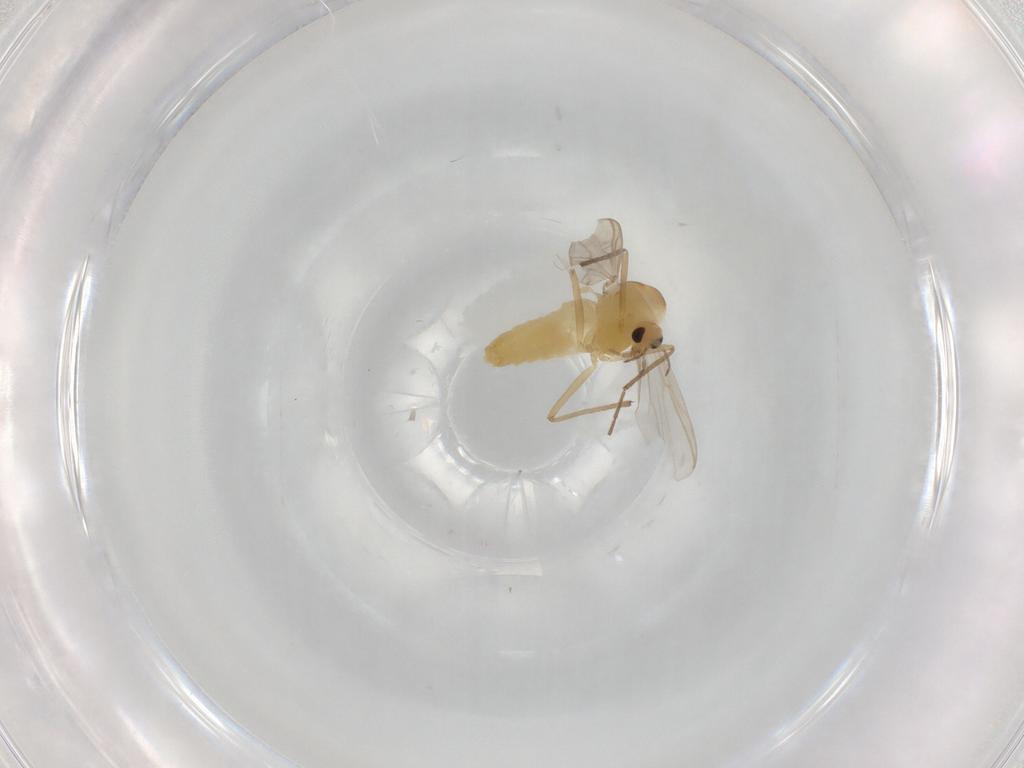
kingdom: Animalia
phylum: Arthropoda
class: Insecta
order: Diptera
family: Chironomidae
